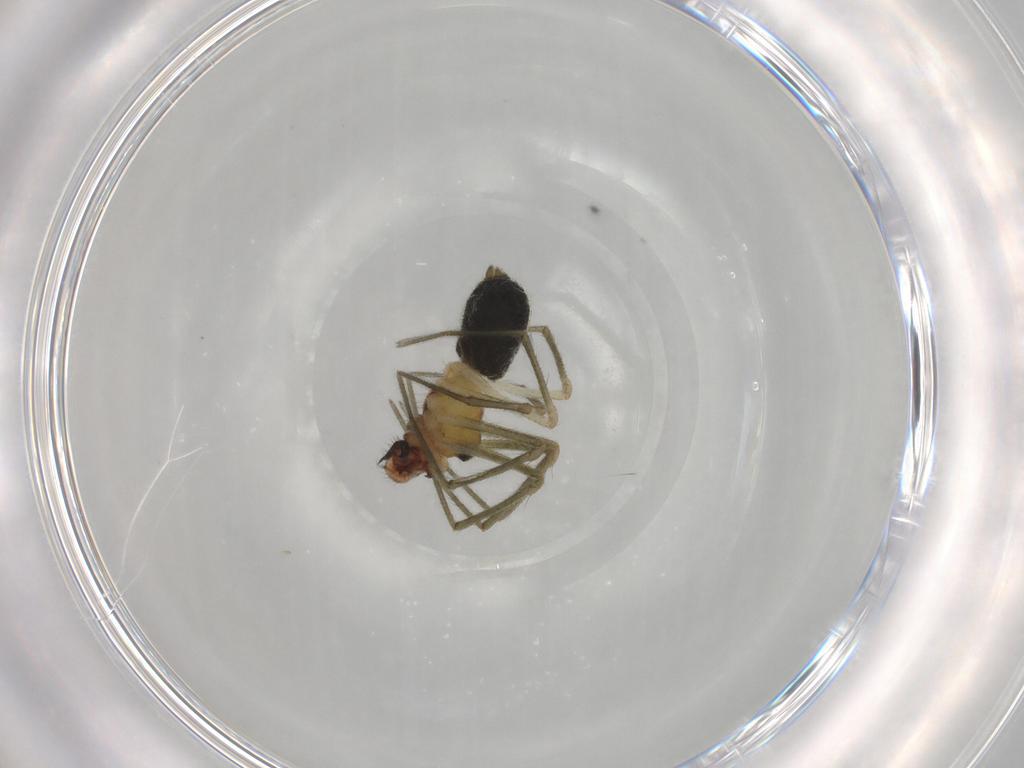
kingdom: Animalia
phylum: Arthropoda
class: Arachnida
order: Araneae
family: Linyphiidae
